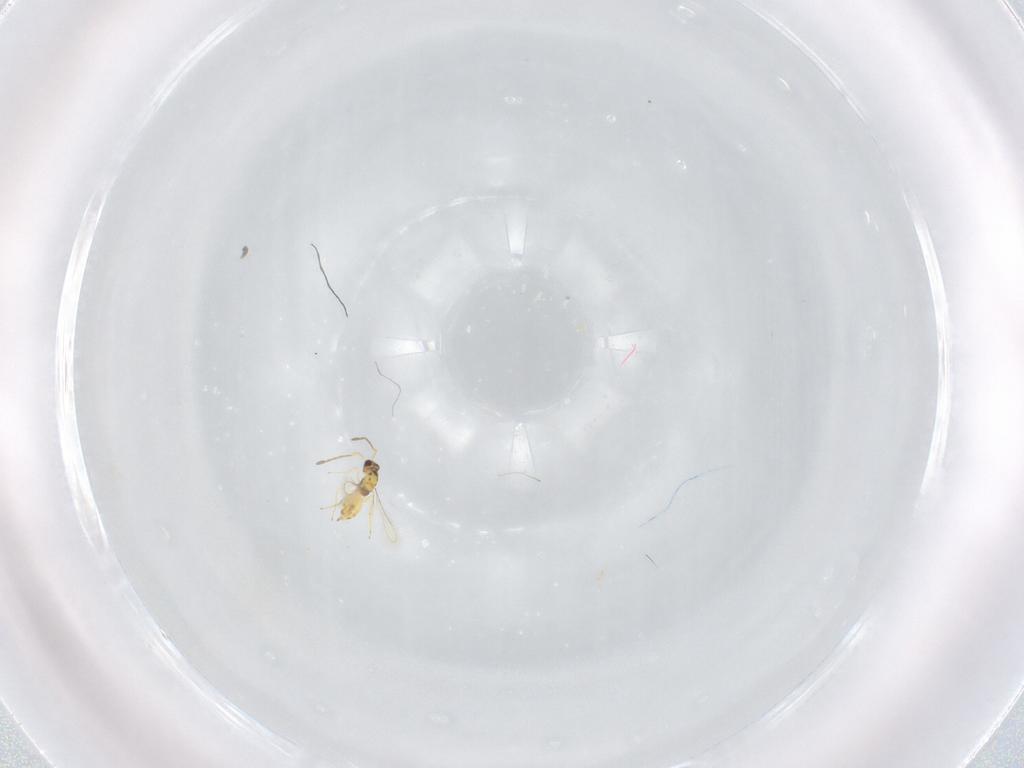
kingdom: Animalia
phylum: Arthropoda
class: Insecta
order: Hymenoptera
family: Mymaridae
